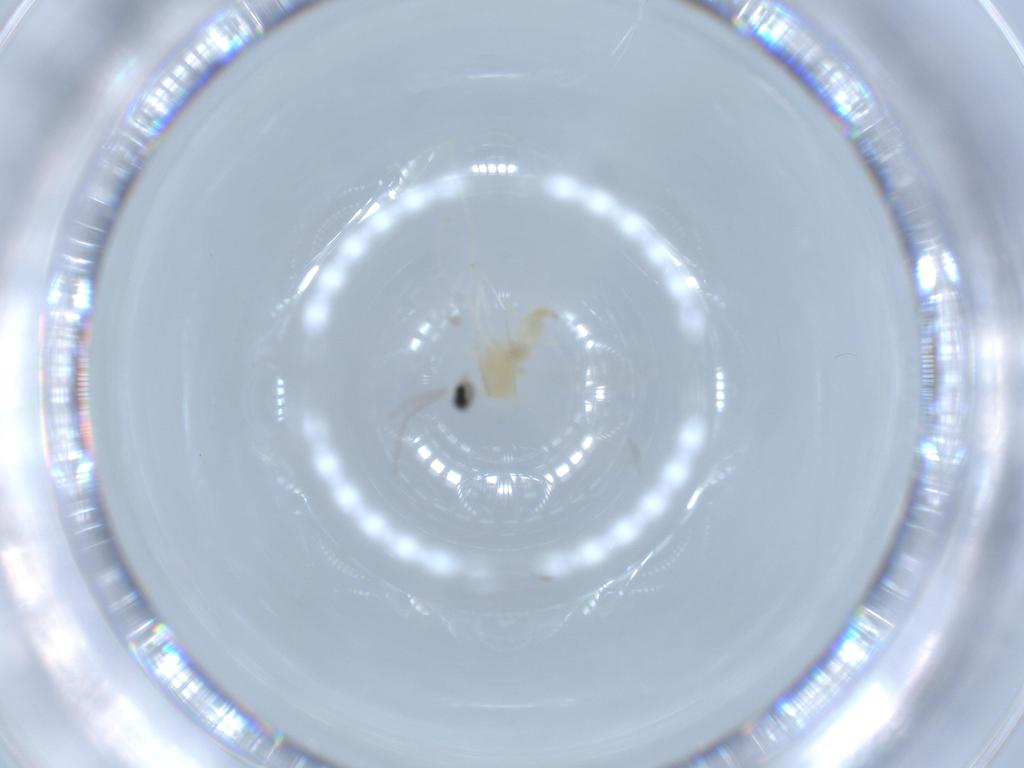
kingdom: Animalia
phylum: Arthropoda
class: Insecta
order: Diptera
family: Cecidomyiidae
